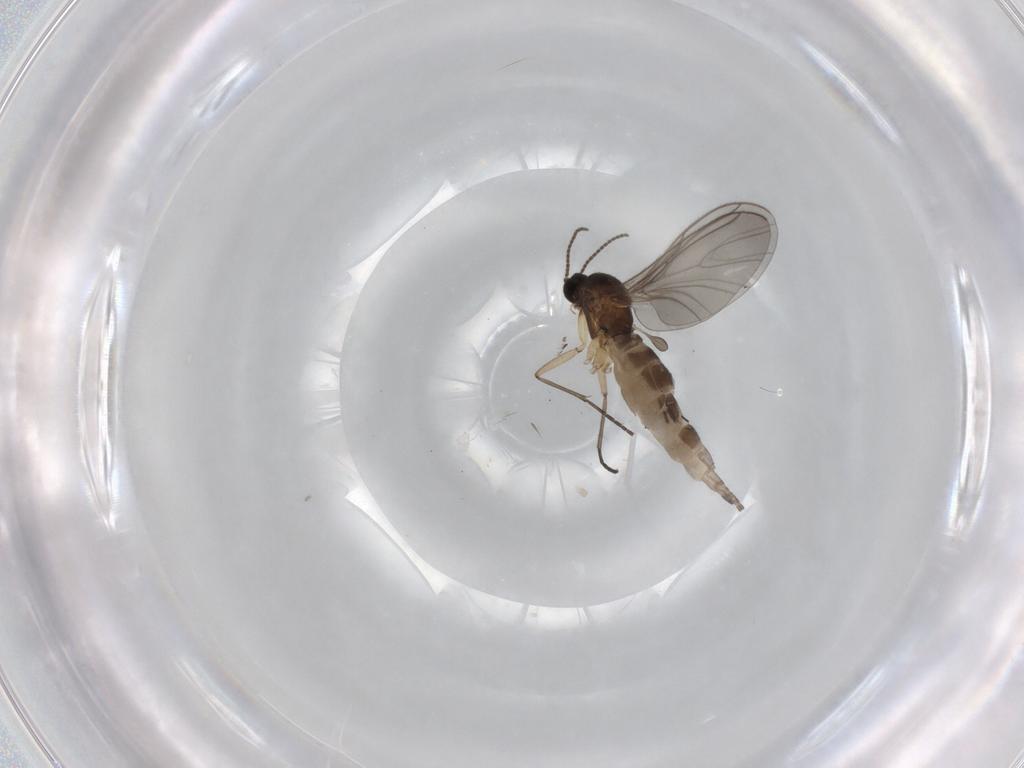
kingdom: Animalia
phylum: Arthropoda
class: Insecta
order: Diptera
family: Sciaridae
